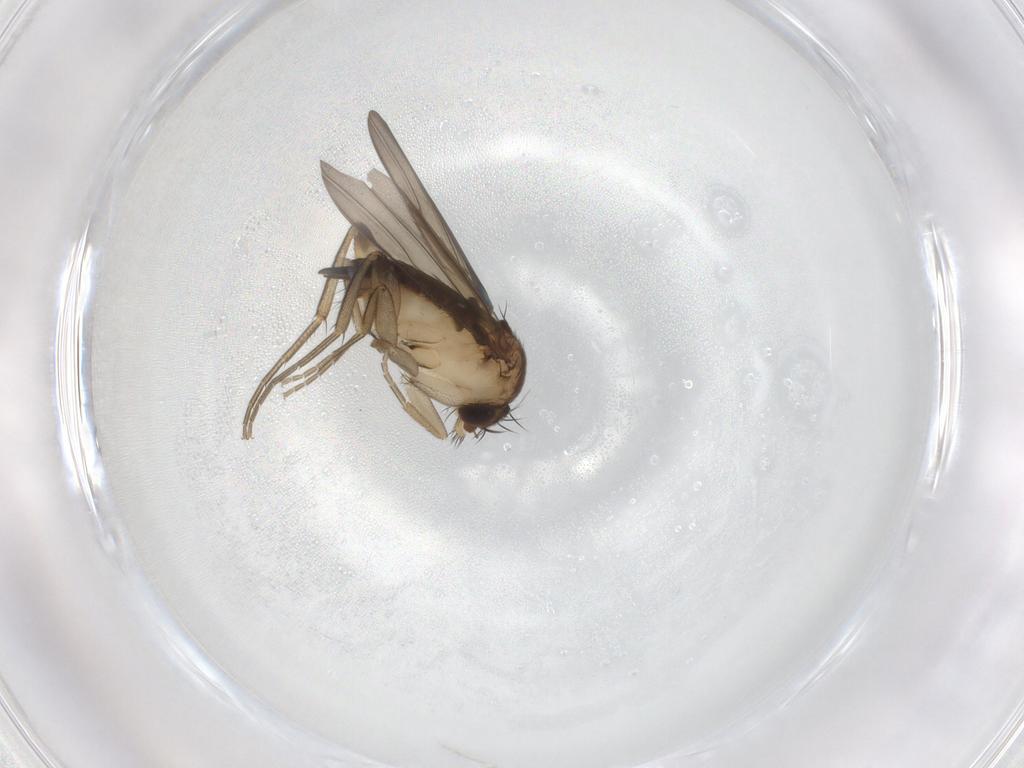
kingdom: Animalia
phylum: Arthropoda
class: Insecta
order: Diptera
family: Phoridae
